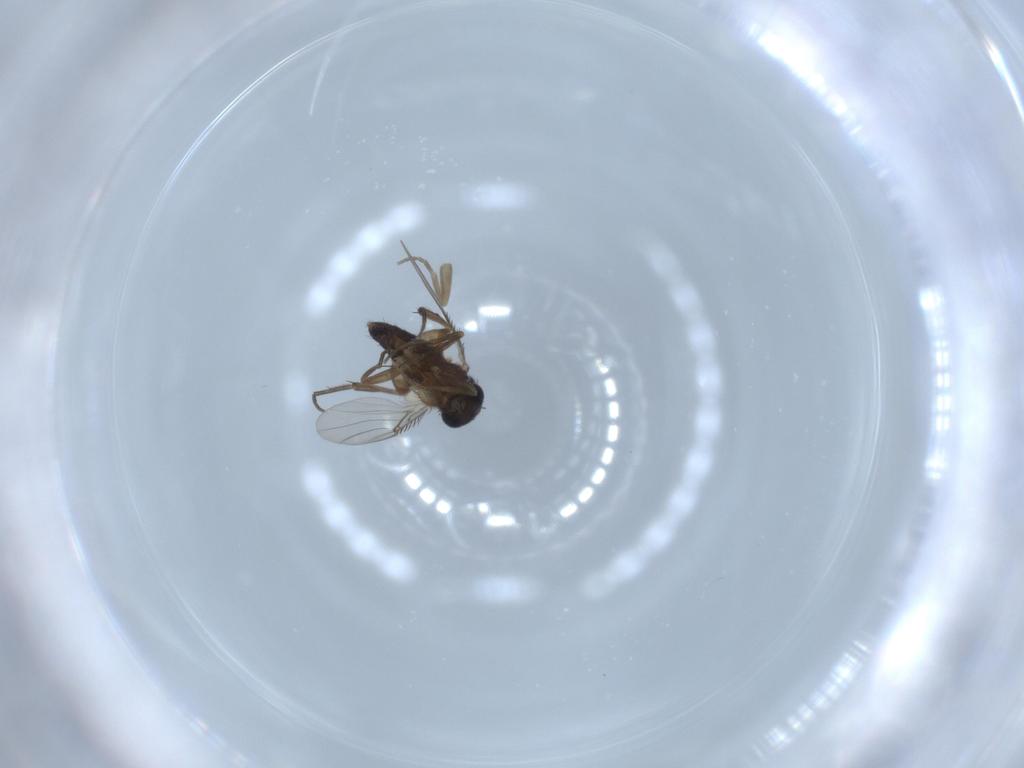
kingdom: Animalia
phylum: Arthropoda
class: Insecta
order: Diptera
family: Phoridae
